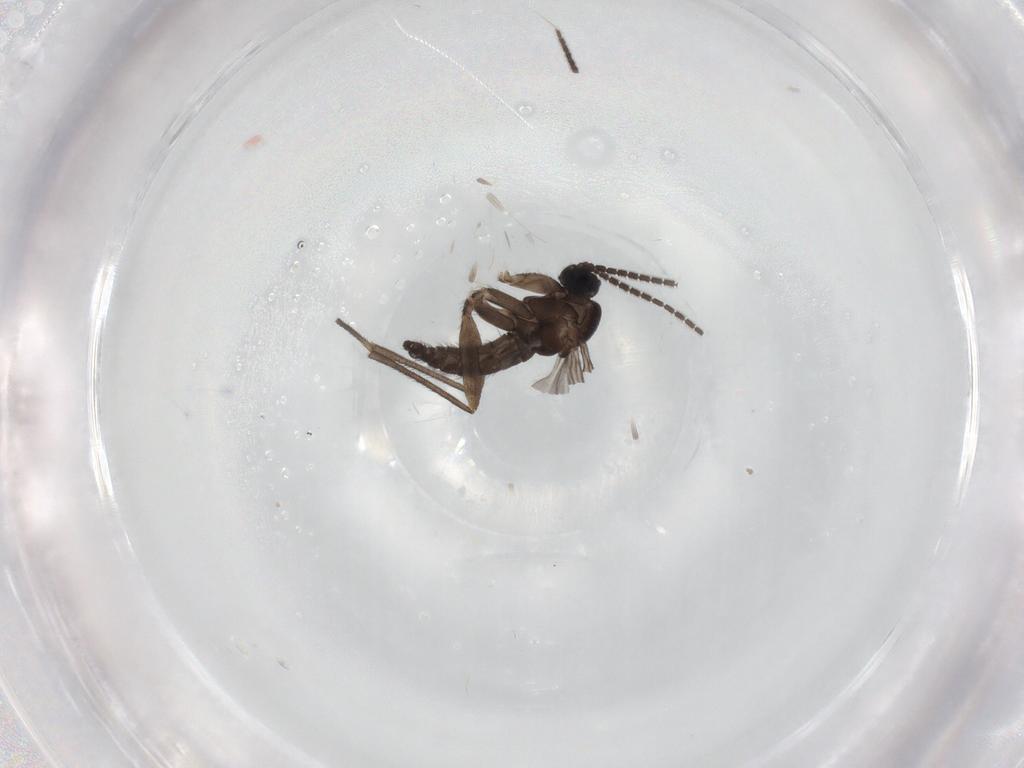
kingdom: Animalia
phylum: Arthropoda
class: Insecta
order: Diptera
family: Sciaridae
